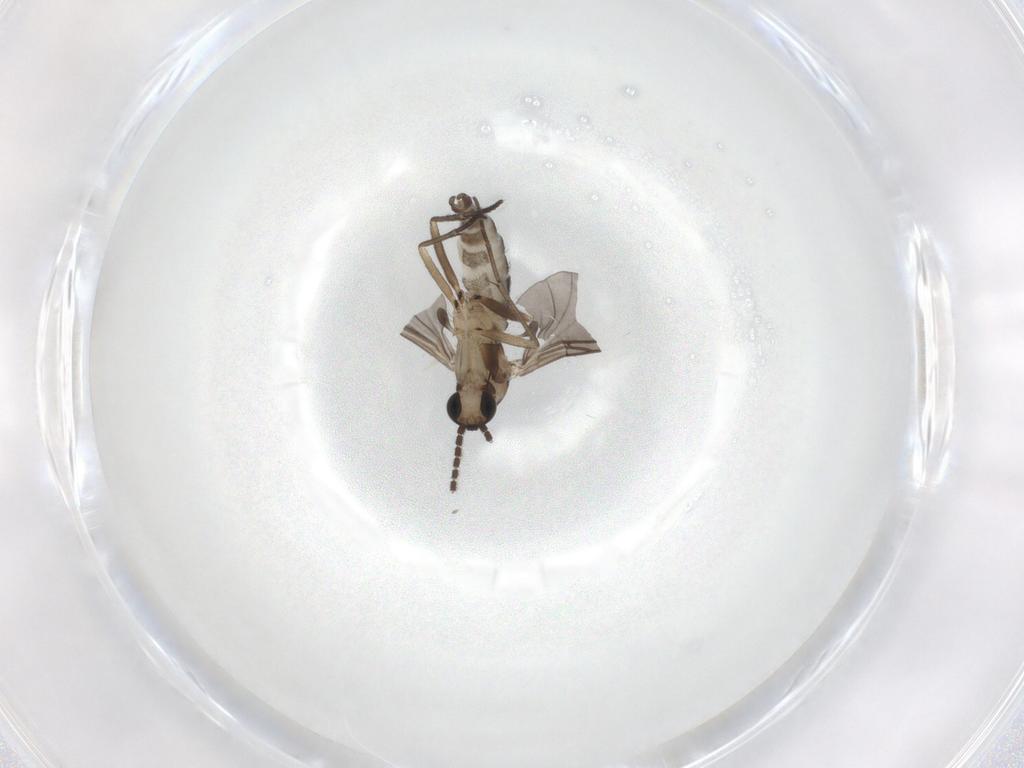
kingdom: Animalia
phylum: Arthropoda
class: Insecta
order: Diptera
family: Sciaridae
